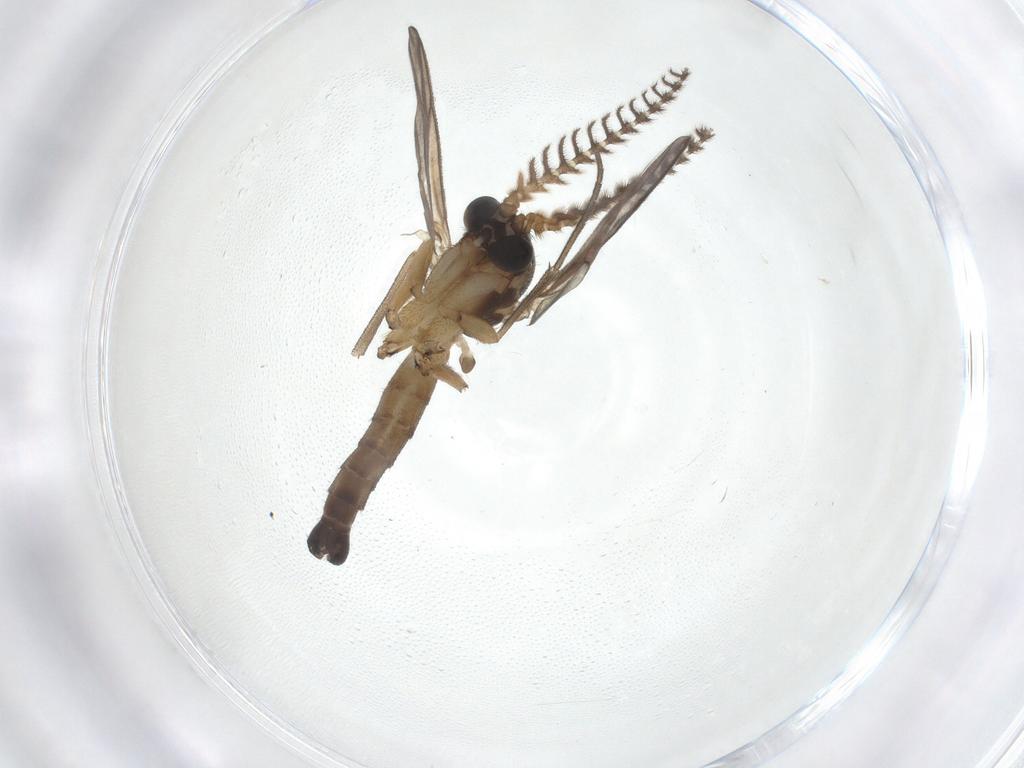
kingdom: Animalia
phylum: Arthropoda
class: Insecta
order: Diptera
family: Mycetophilidae
